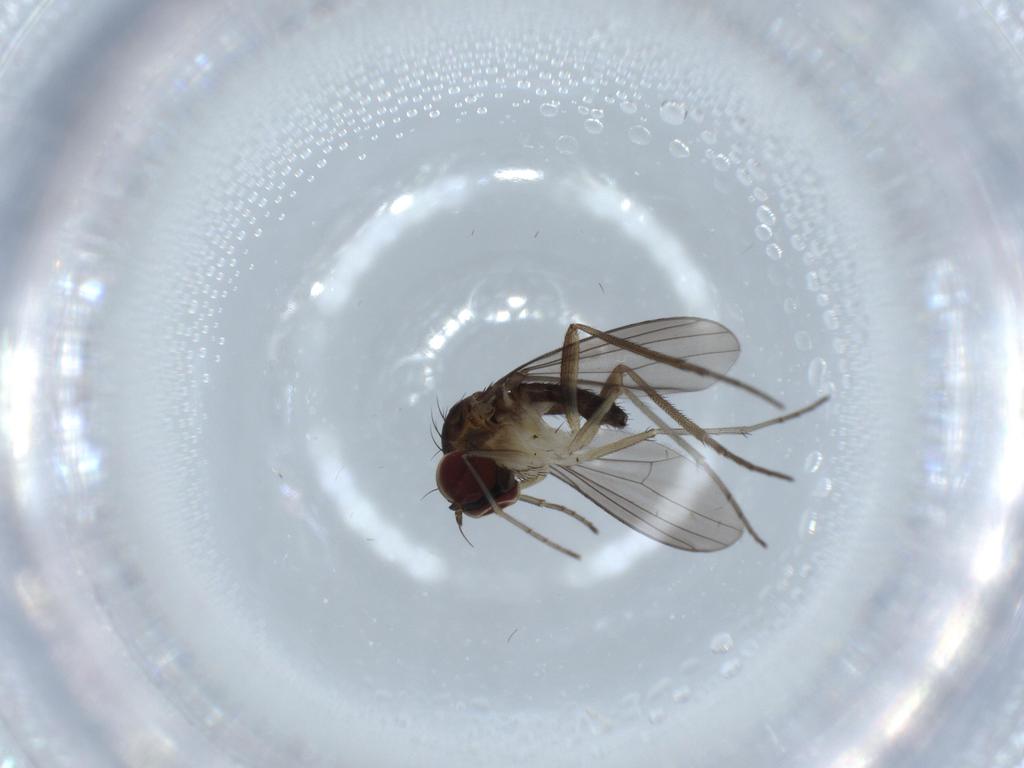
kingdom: Animalia
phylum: Arthropoda
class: Insecta
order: Diptera
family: Dolichopodidae
